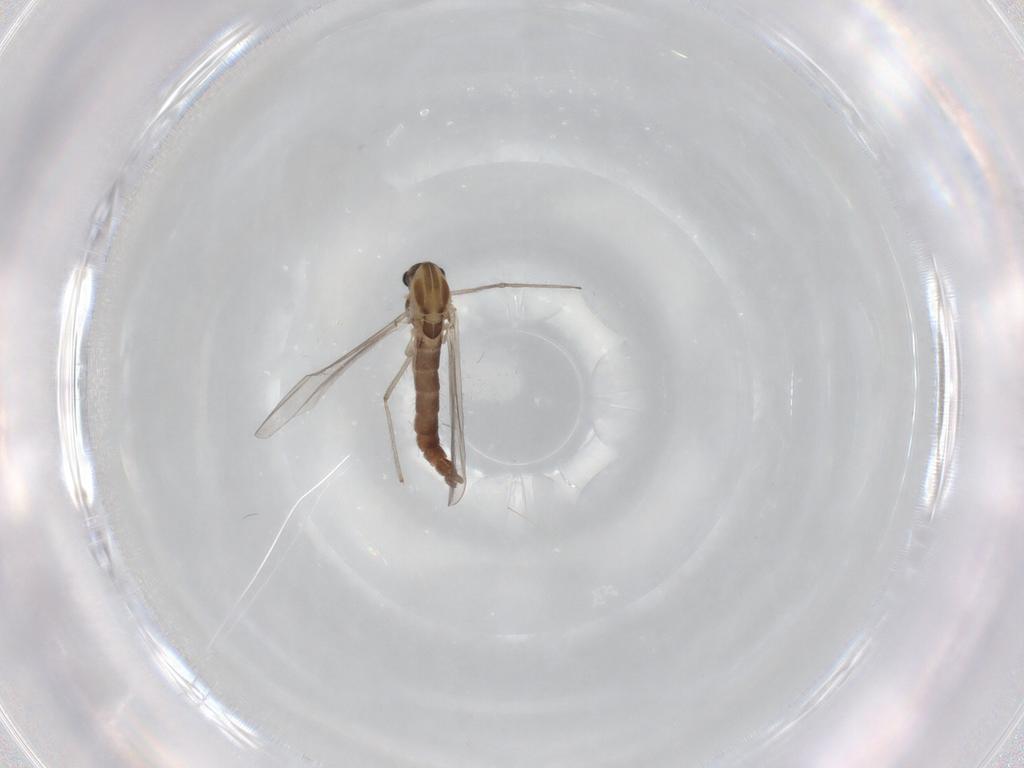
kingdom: Animalia
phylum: Arthropoda
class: Insecta
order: Diptera
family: Chironomidae
